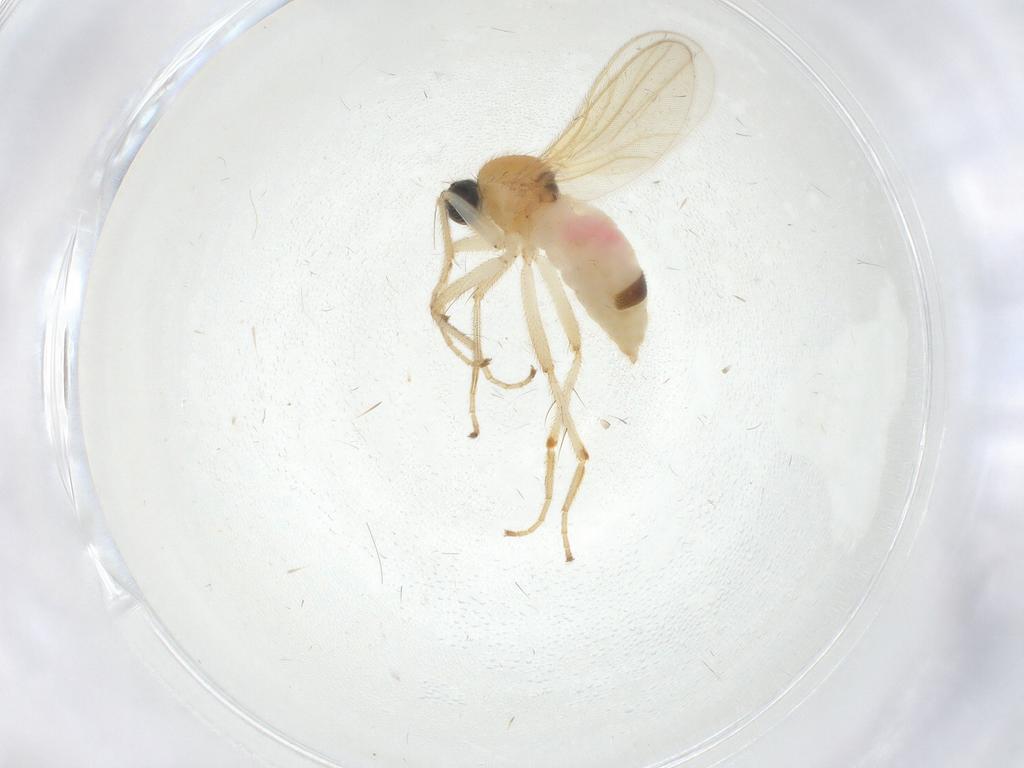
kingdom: Animalia
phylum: Arthropoda
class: Insecta
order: Diptera
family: Hybotidae
